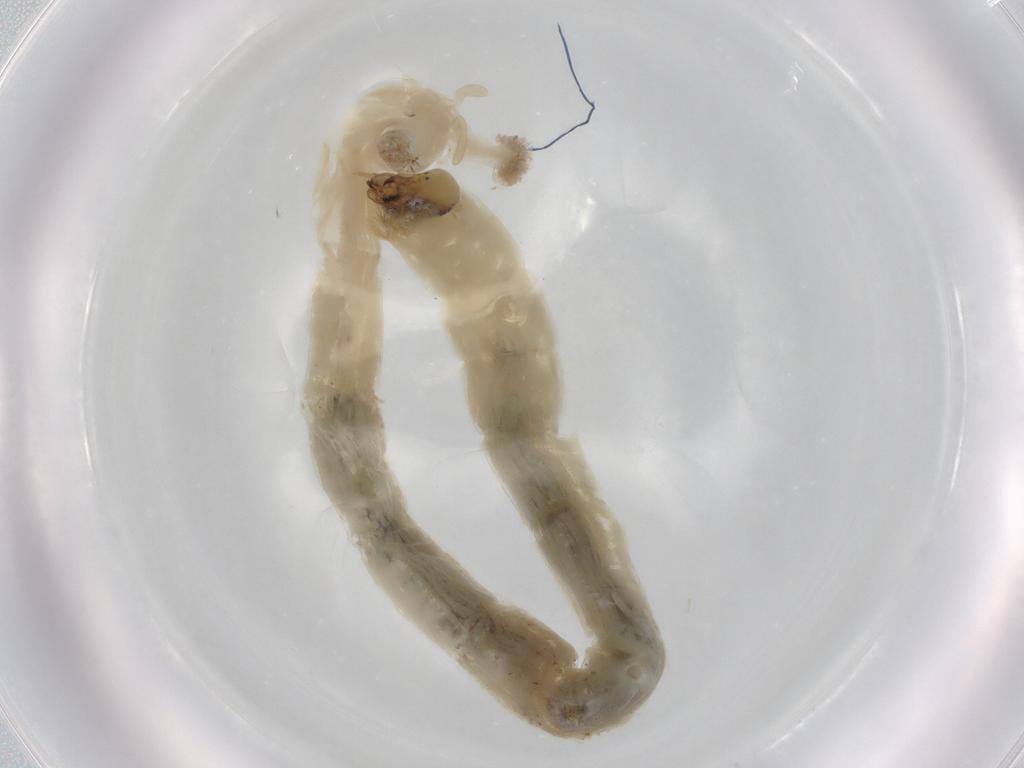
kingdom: Animalia
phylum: Arthropoda
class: Insecta
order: Diptera
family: Chironomidae
